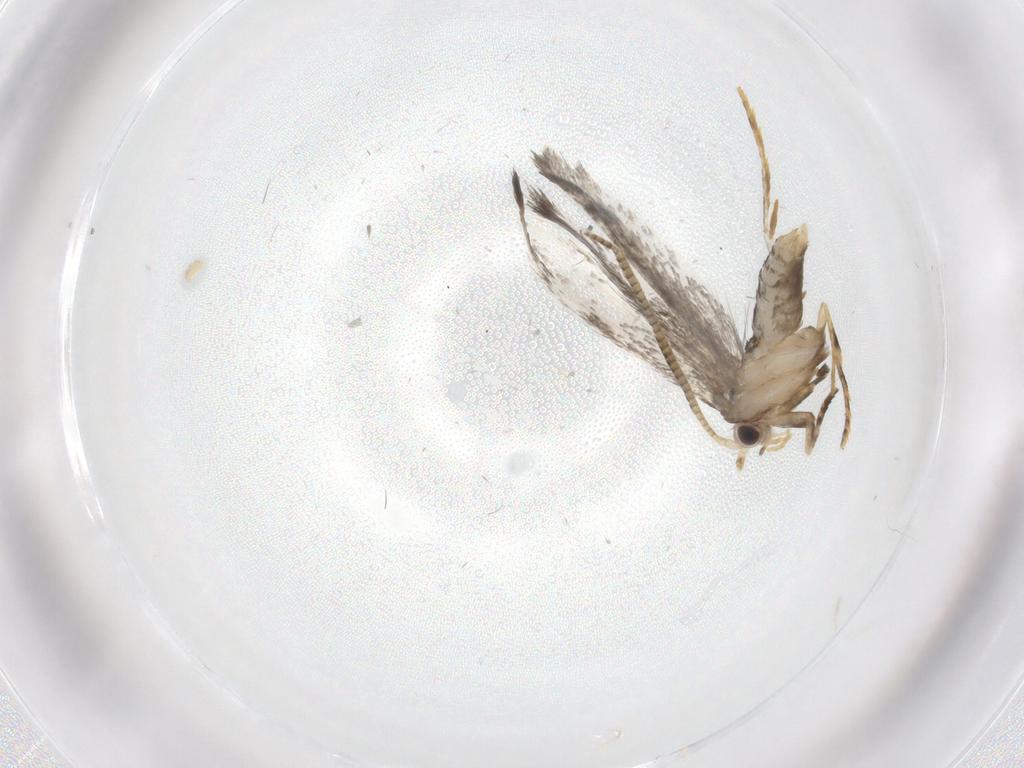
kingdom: Animalia
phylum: Arthropoda
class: Insecta
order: Lepidoptera
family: Tineidae
